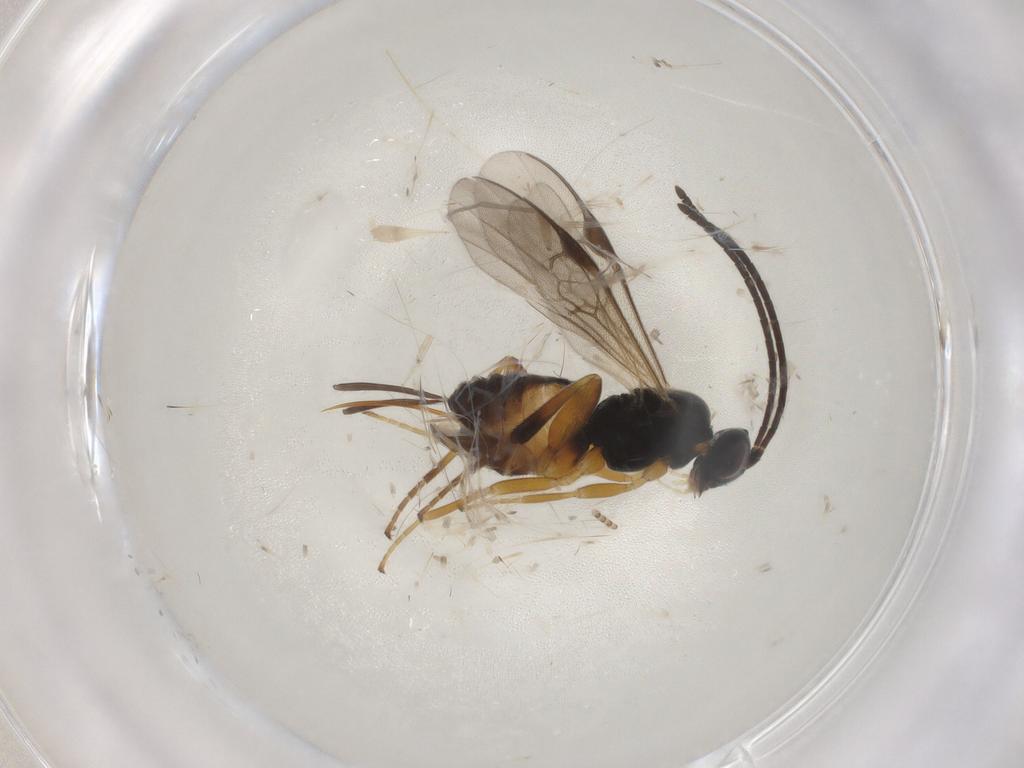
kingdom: Animalia
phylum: Arthropoda
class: Insecta
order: Hymenoptera
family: Braconidae
